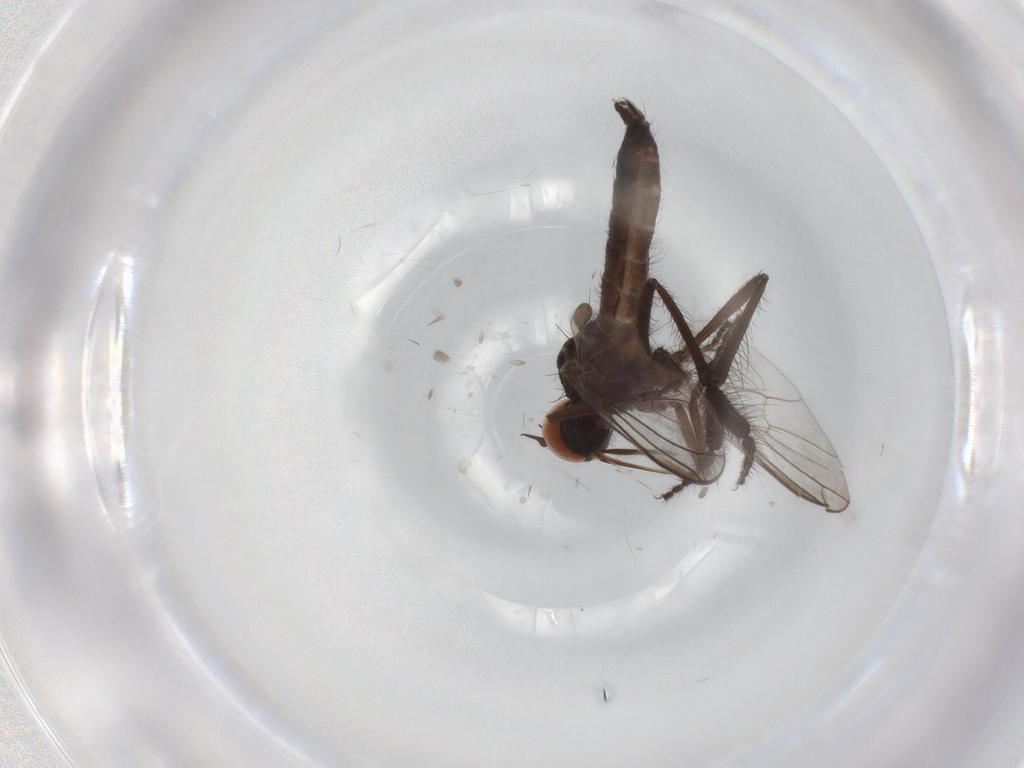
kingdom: Animalia
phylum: Arthropoda
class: Insecta
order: Diptera
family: Empididae
